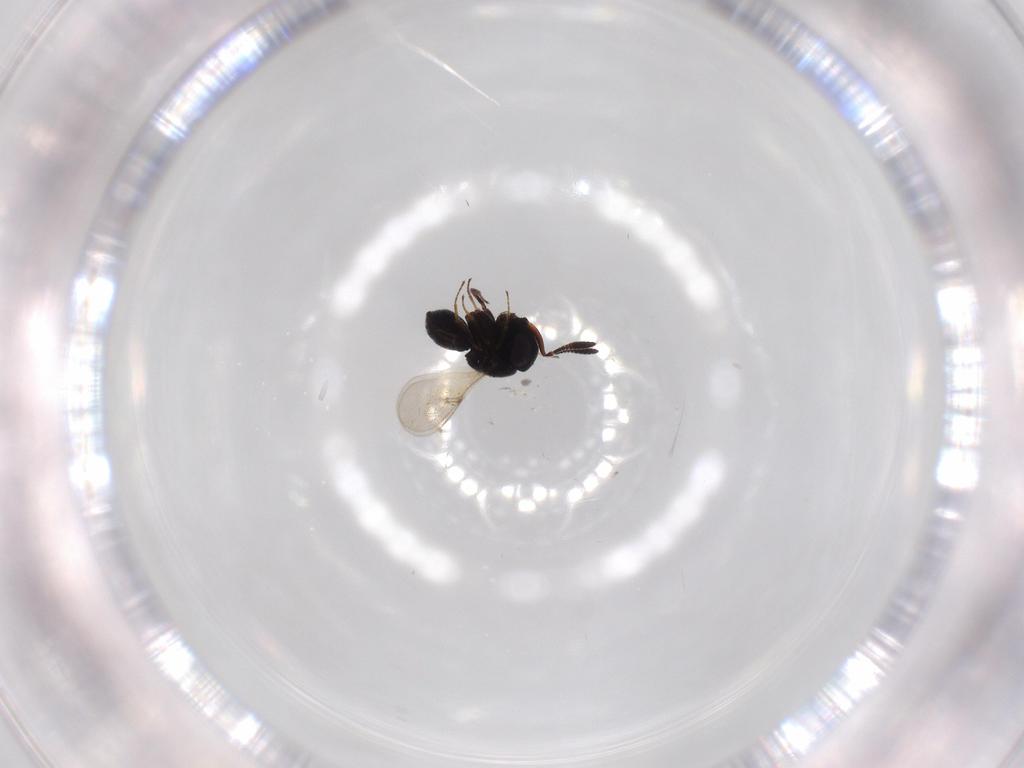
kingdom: Animalia
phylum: Arthropoda
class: Insecta
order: Hymenoptera
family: Scelionidae
